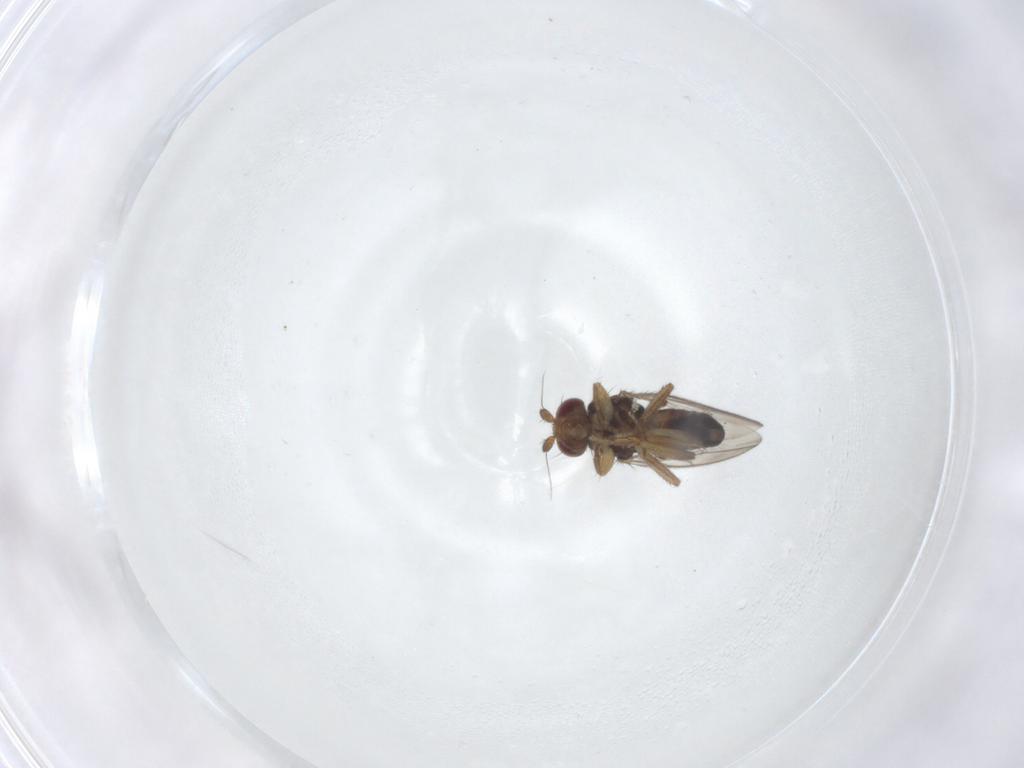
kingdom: Animalia
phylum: Arthropoda
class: Insecta
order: Diptera
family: Sphaeroceridae
